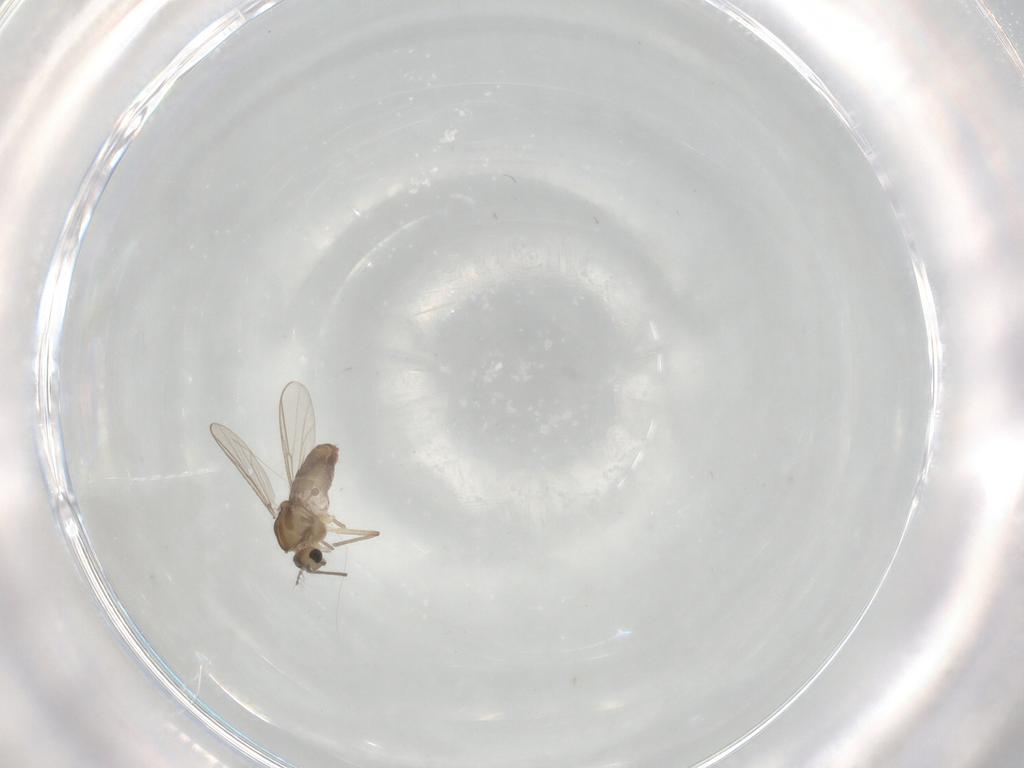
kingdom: Animalia
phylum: Arthropoda
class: Insecta
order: Diptera
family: Chironomidae
